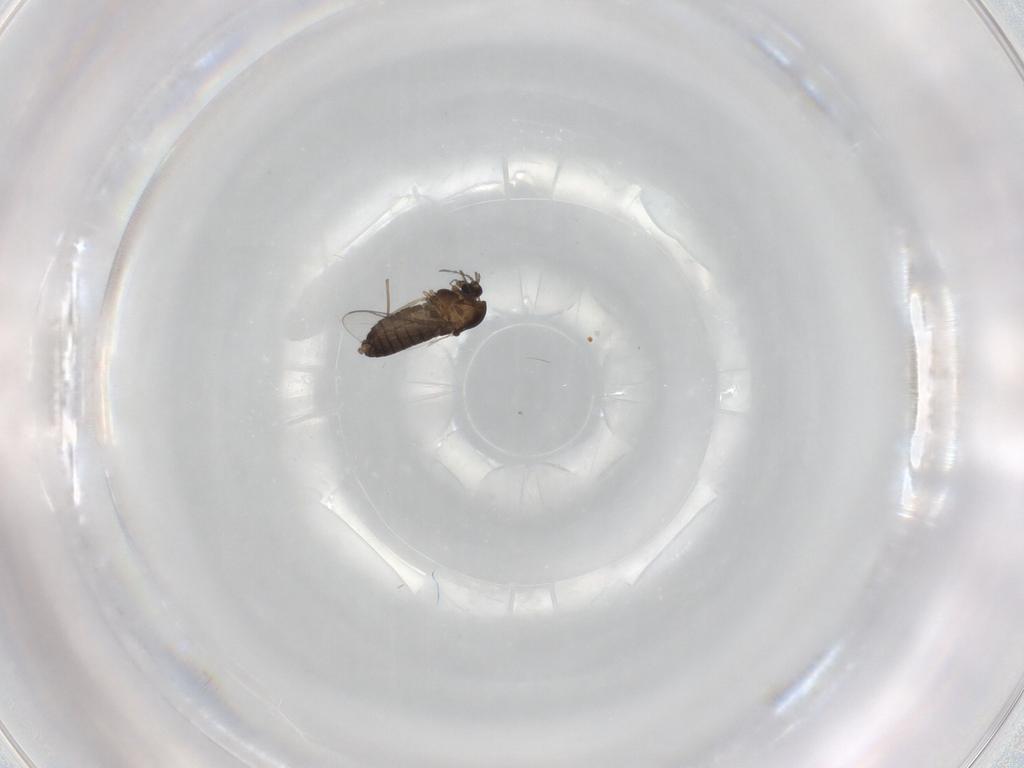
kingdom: Animalia
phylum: Arthropoda
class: Insecta
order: Diptera
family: Chironomidae
